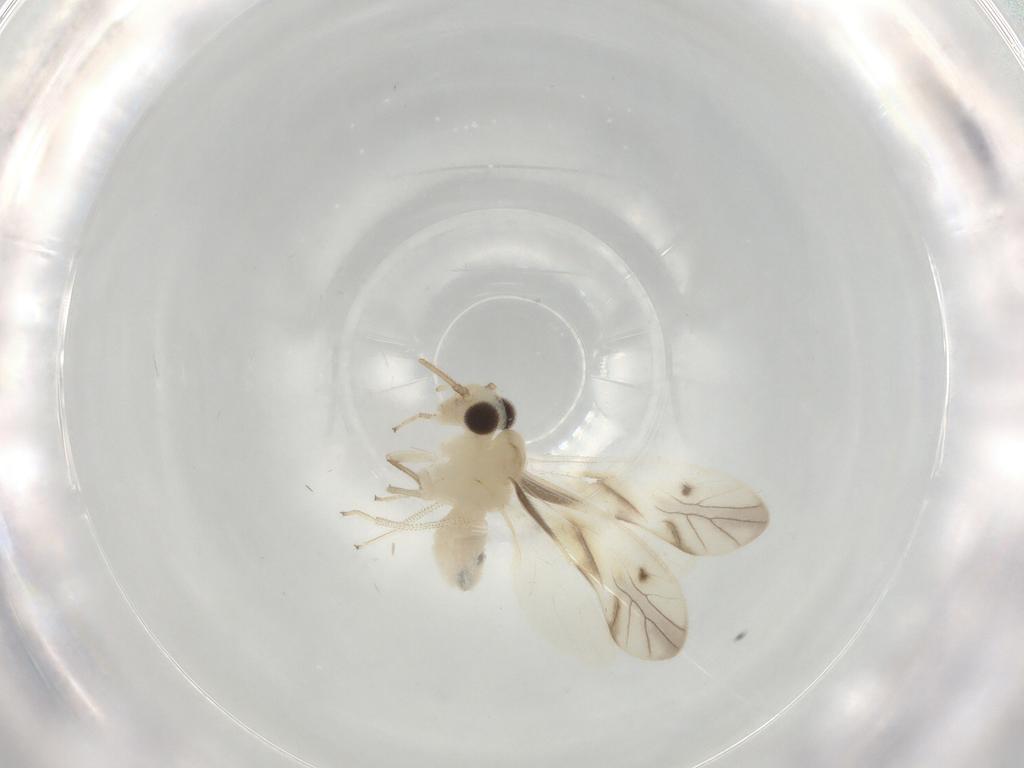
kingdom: Animalia
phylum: Arthropoda
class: Insecta
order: Psocodea
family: Caeciliusidae
